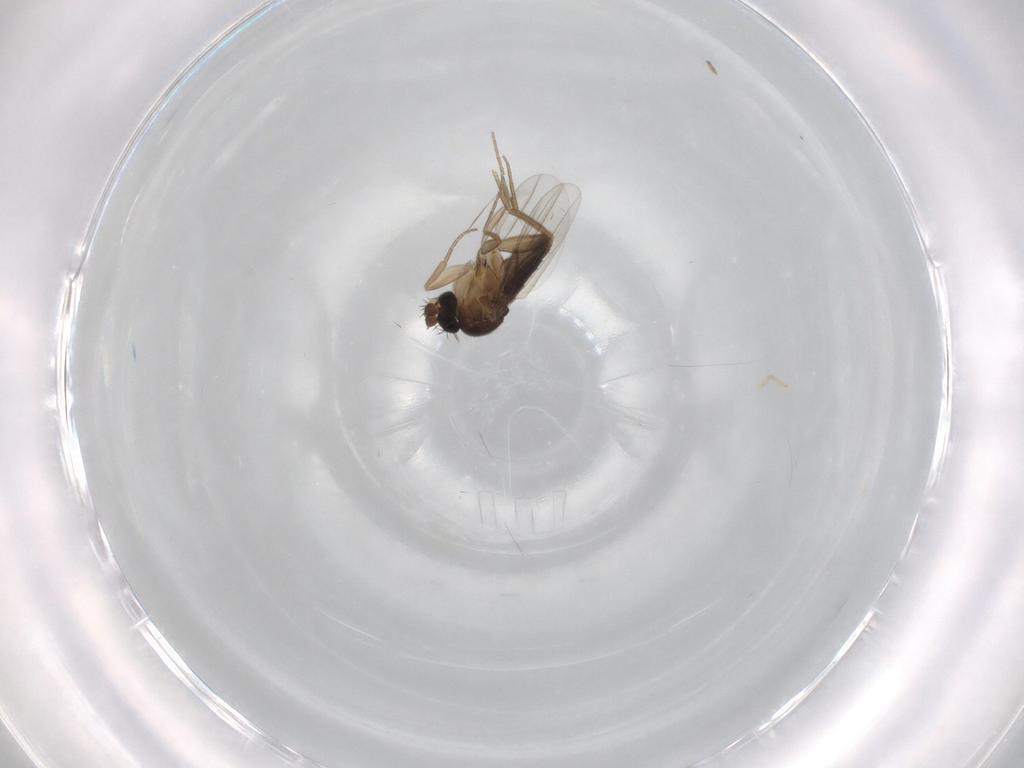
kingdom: Animalia
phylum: Arthropoda
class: Insecta
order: Diptera
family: Phoridae
